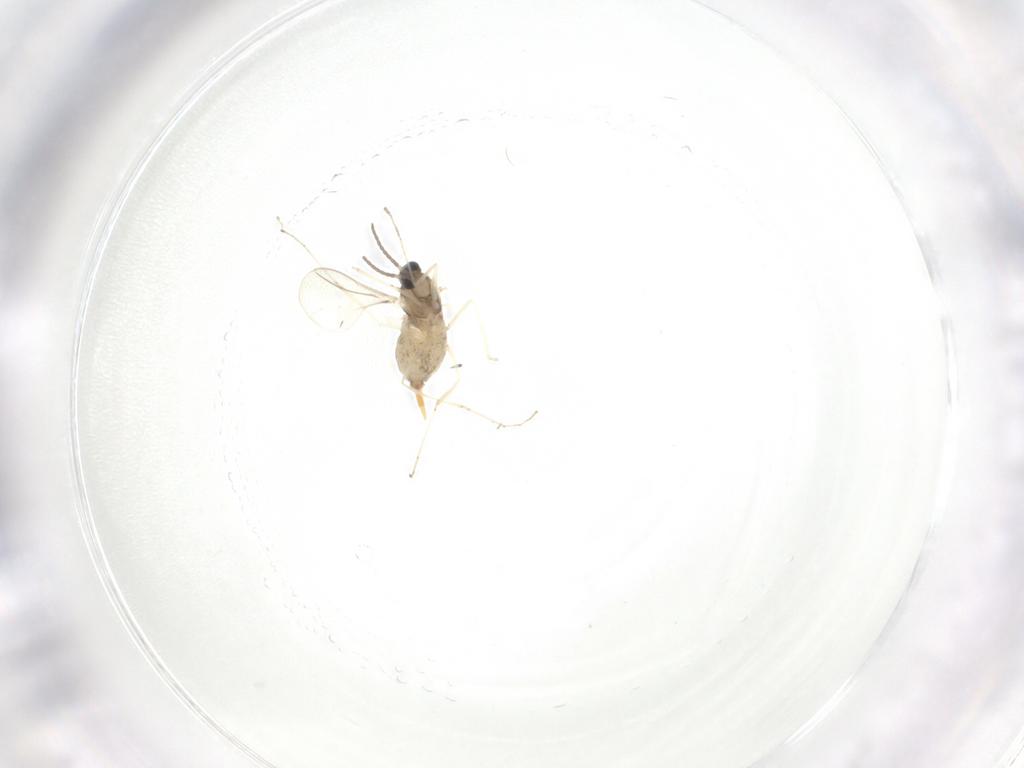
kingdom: Animalia
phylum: Arthropoda
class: Insecta
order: Diptera
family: Cecidomyiidae
